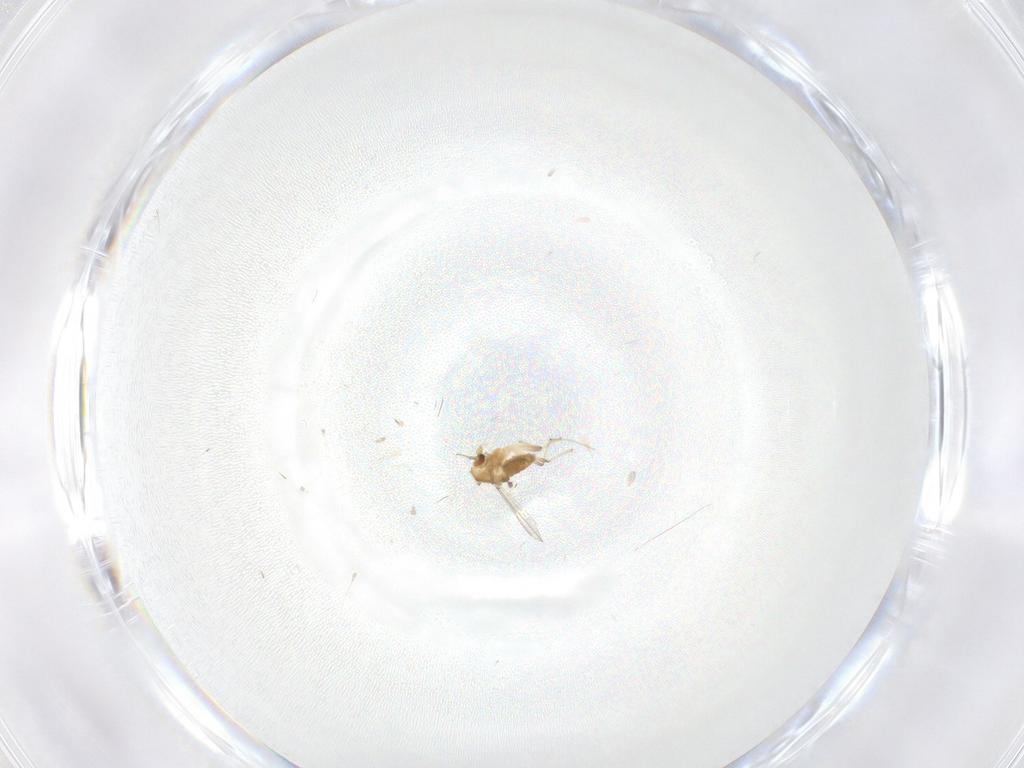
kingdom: Animalia
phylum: Arthropoda
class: Insecta
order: Diptera
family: Chironomidae
